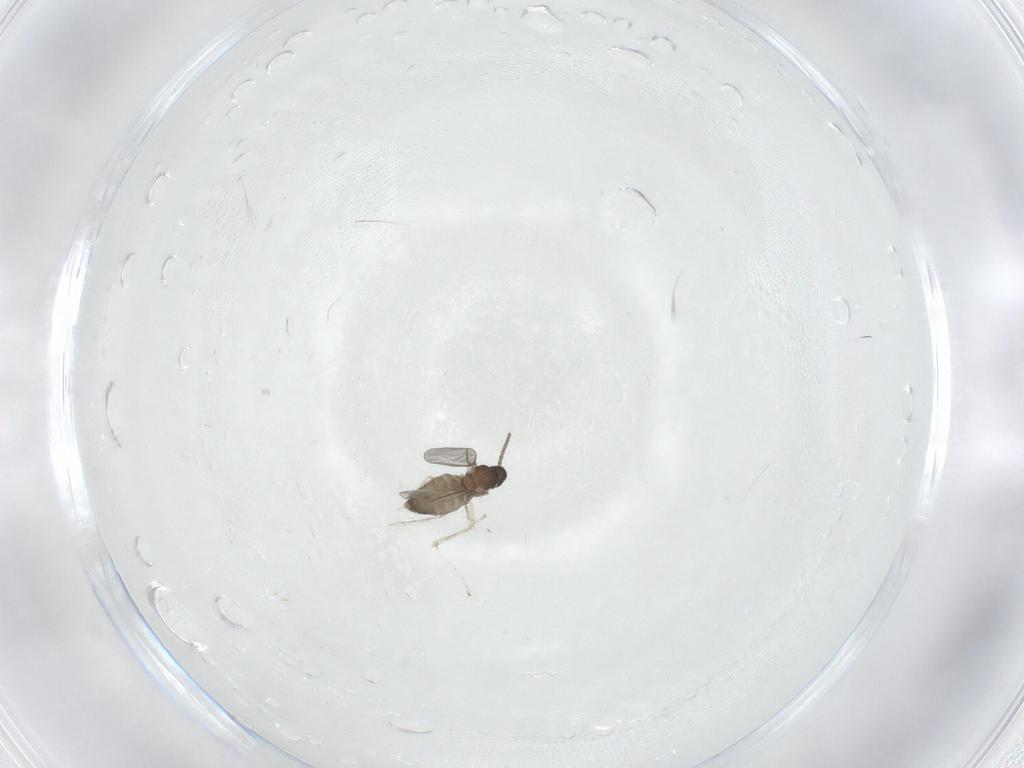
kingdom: Animalia
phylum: Arthropoda
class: Insecta
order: Diptera
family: Cecidomyiidae
